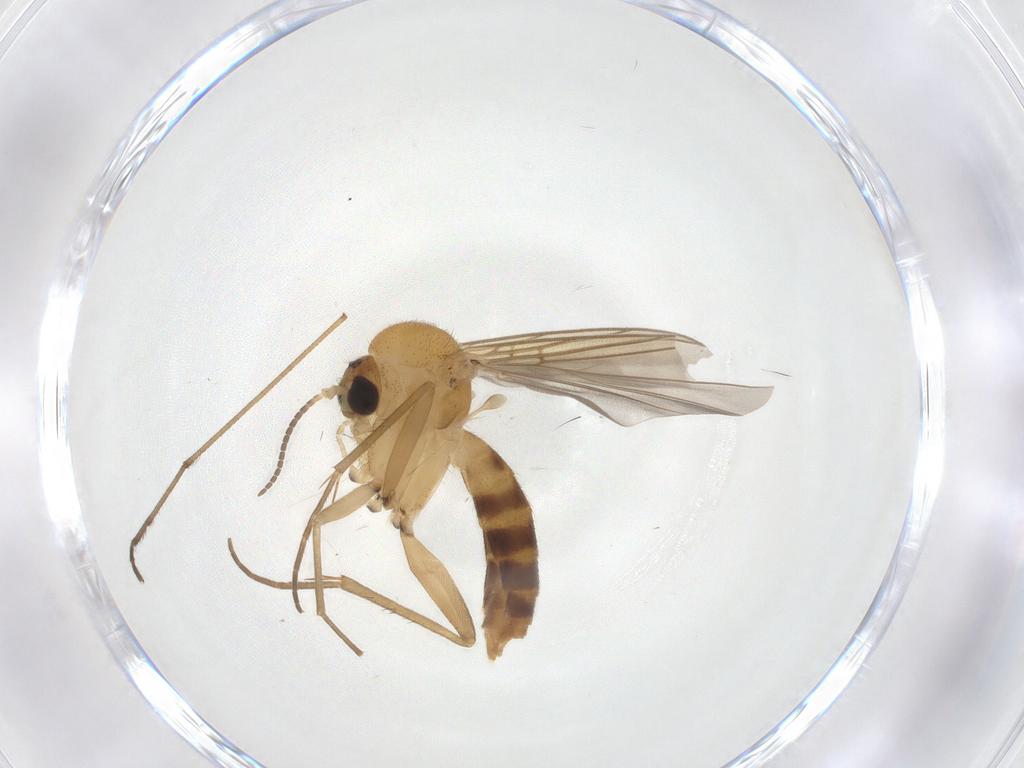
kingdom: Animalia
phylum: Arthropoda
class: Insecta
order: Diptera
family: Mycetophilidae
